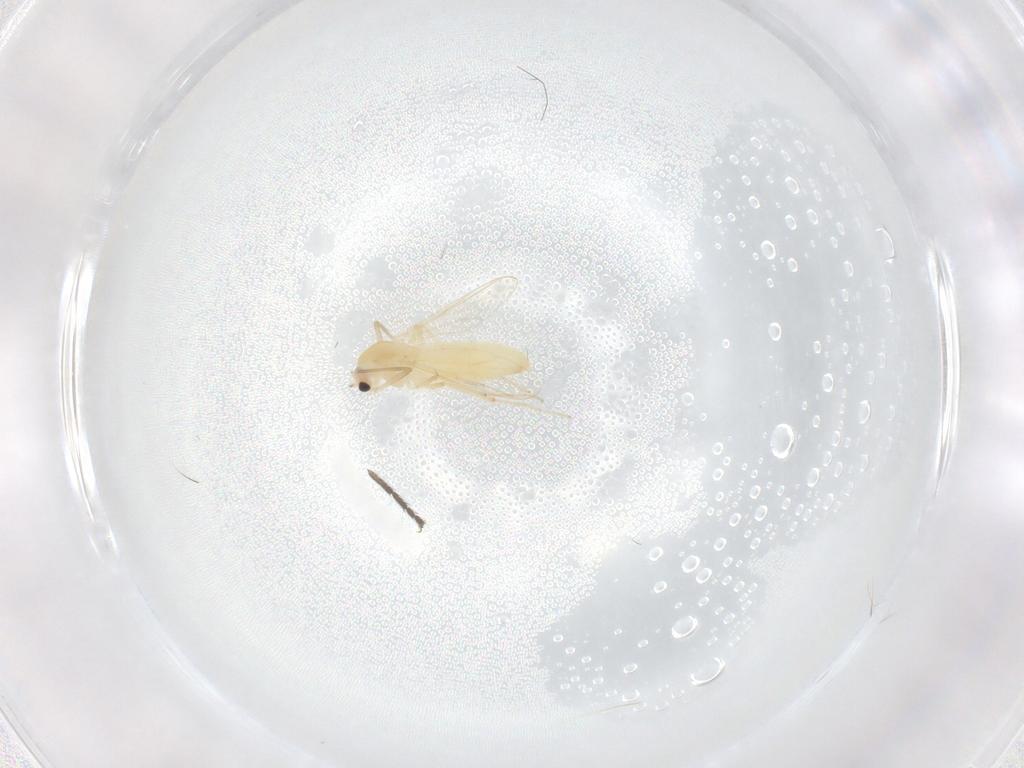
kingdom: Animalia
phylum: Arthropoda
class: Insecta
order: Diptera
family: Chironomidae
